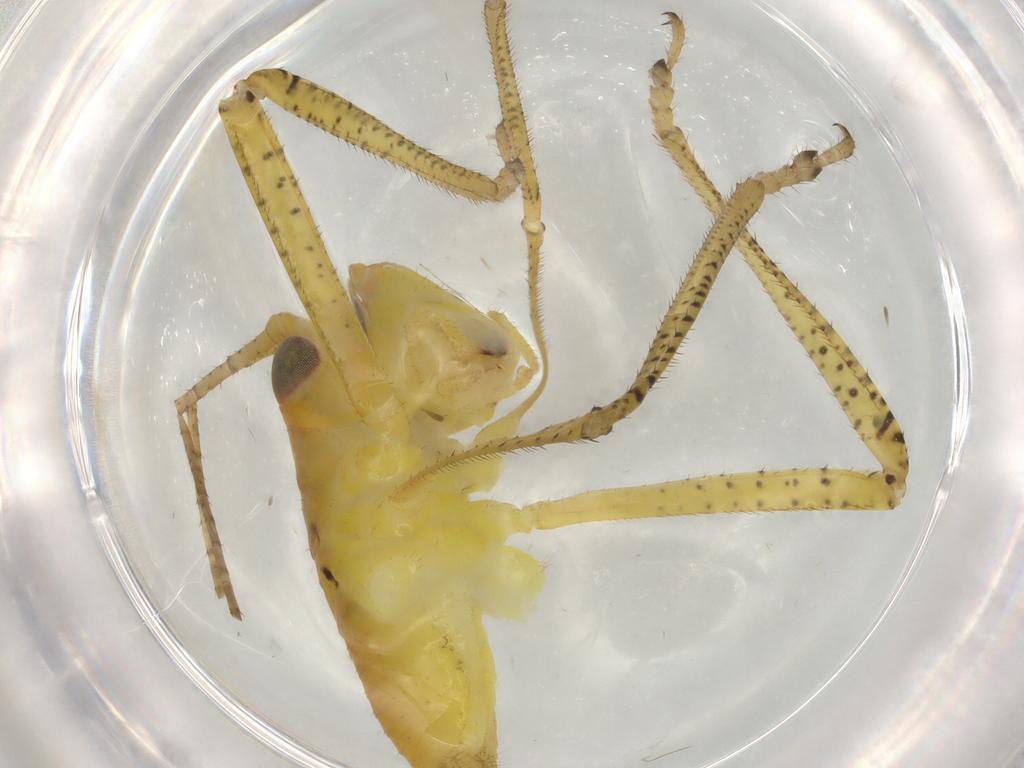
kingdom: Animalia
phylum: Arthropoda
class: Insecta
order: Orthoptera
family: Tettigoniidae
